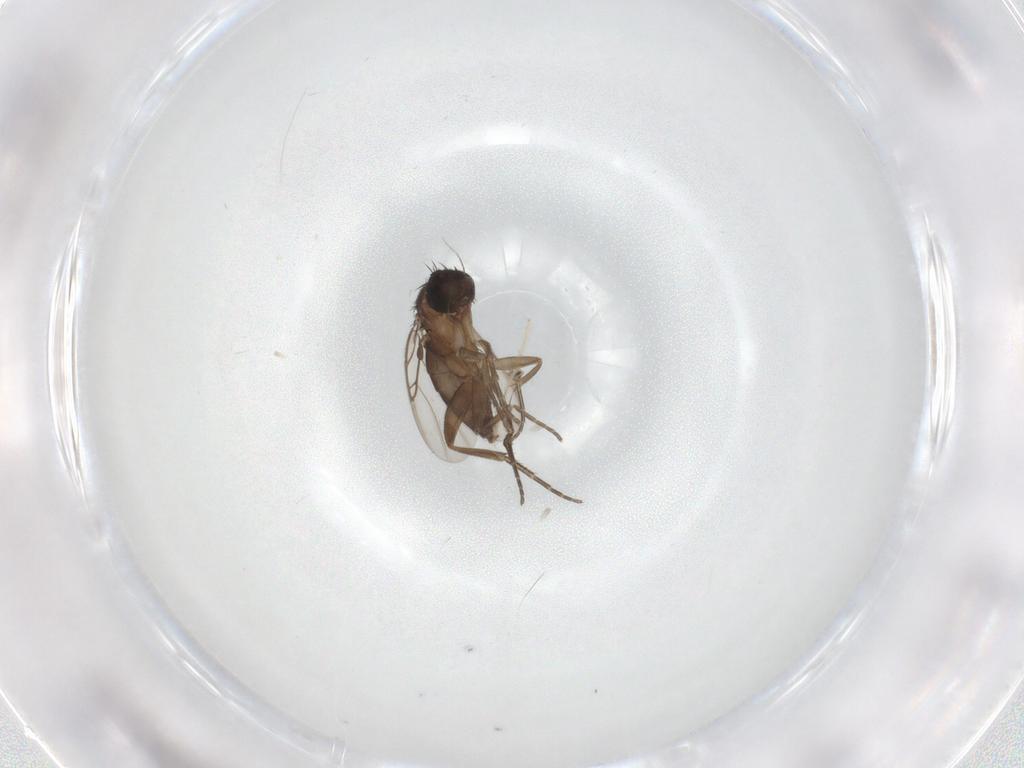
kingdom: Animalia
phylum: Arthropoda
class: Insecta
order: Diptera
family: Phoridae
